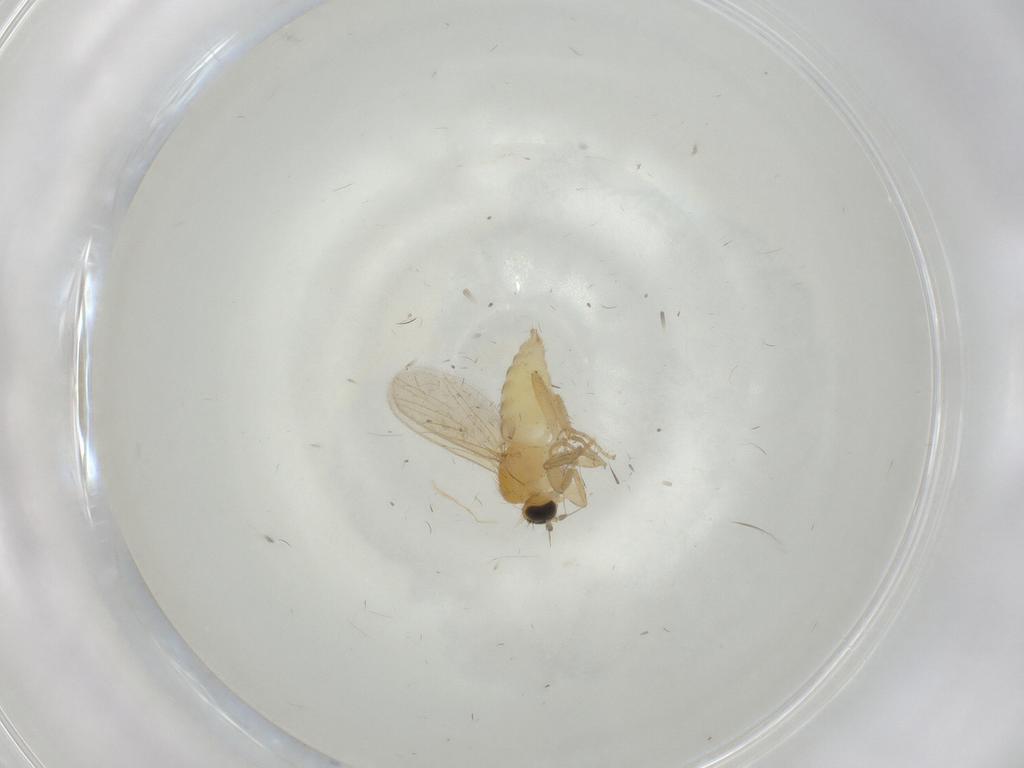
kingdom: Animalia
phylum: Arthropoda
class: Insecta
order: Diptera
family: Hybotidae
